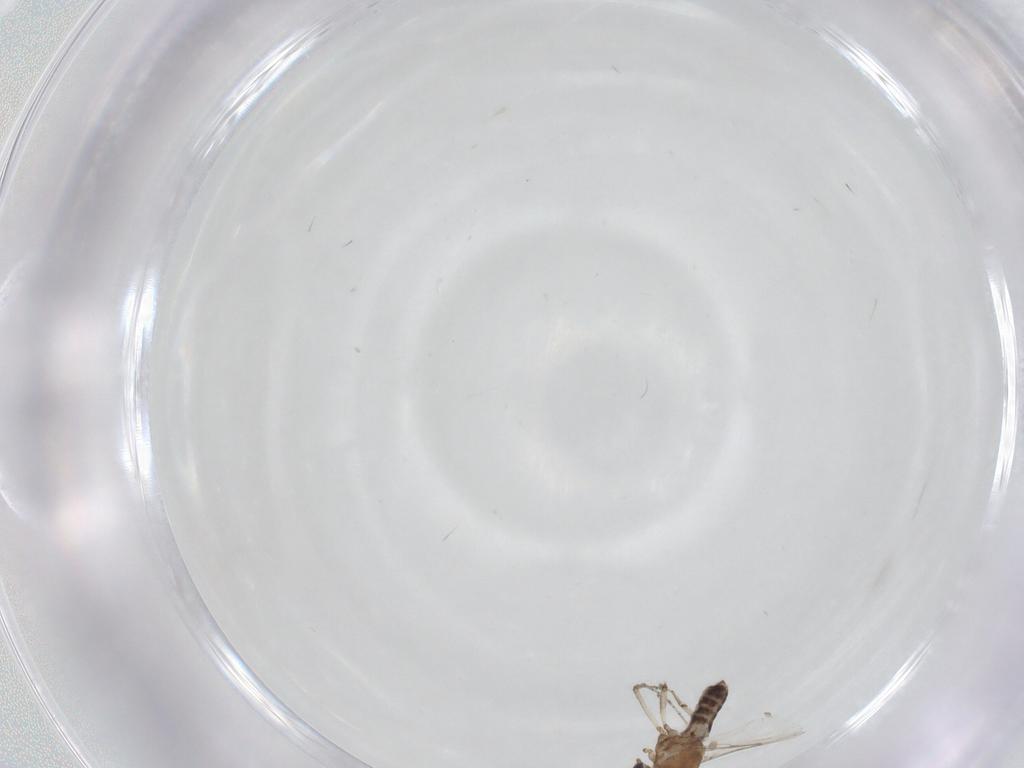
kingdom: Animalia
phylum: Arthropoda
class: Insecta
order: Diptera
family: Ceratopogonidae
